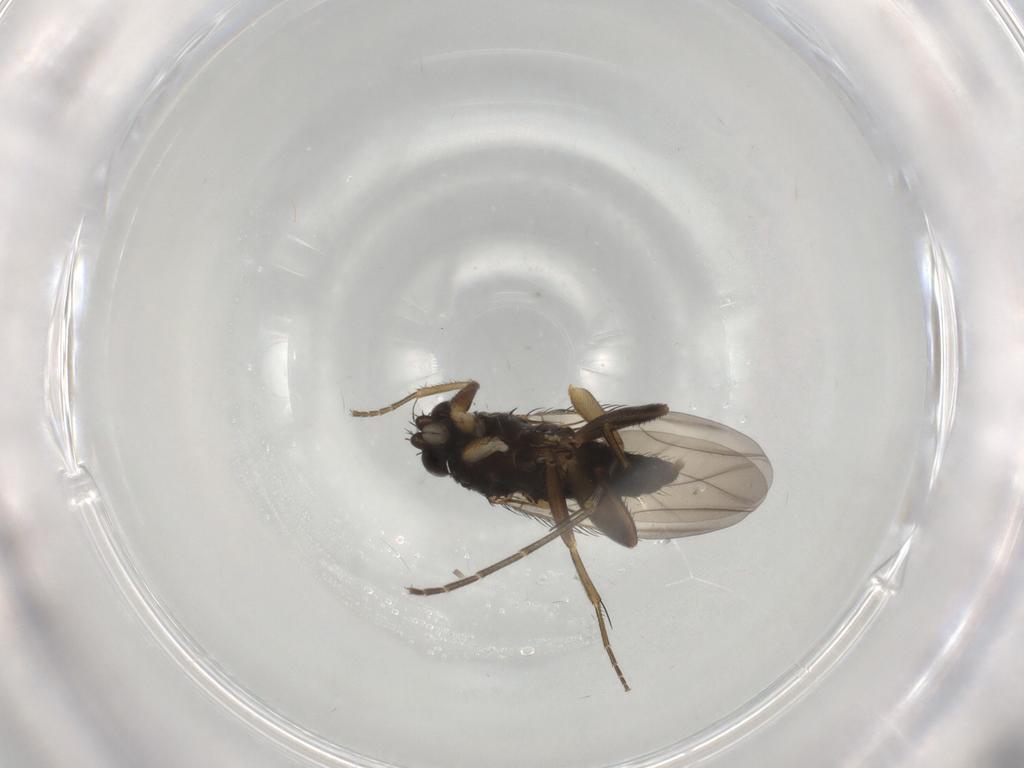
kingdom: Animalia
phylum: Arthropoda
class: Insecta
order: Diptera
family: Phoridae
